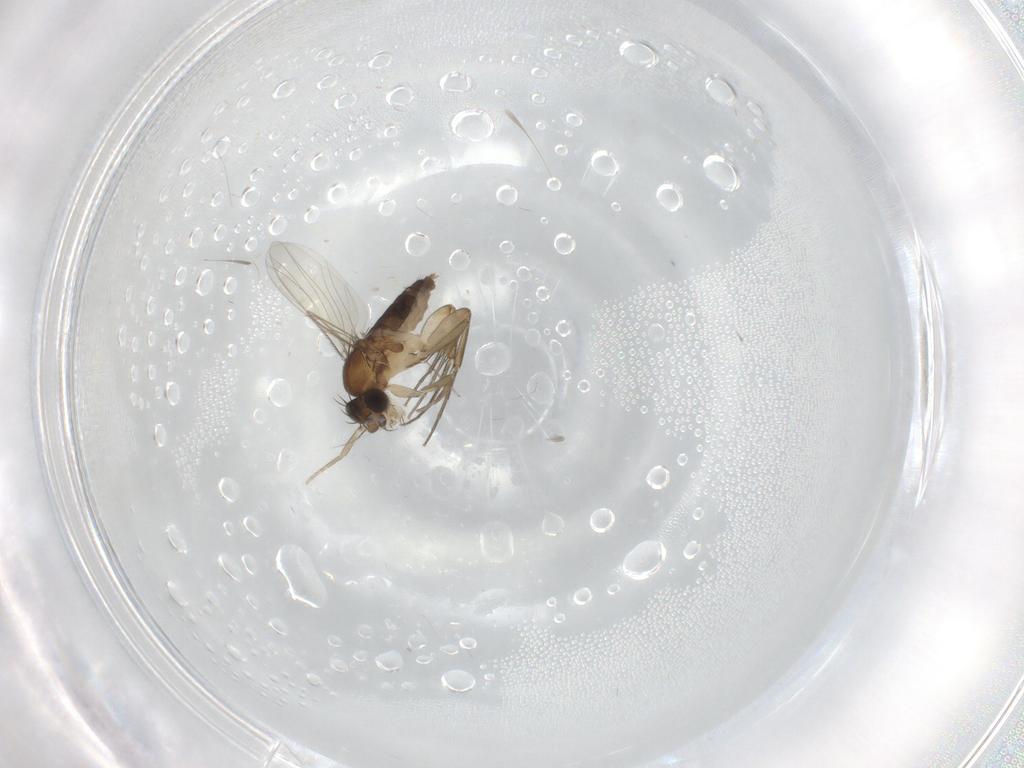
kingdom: Animalia
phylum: Arthropoda
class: Insecta
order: Diptera
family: Phoridae
